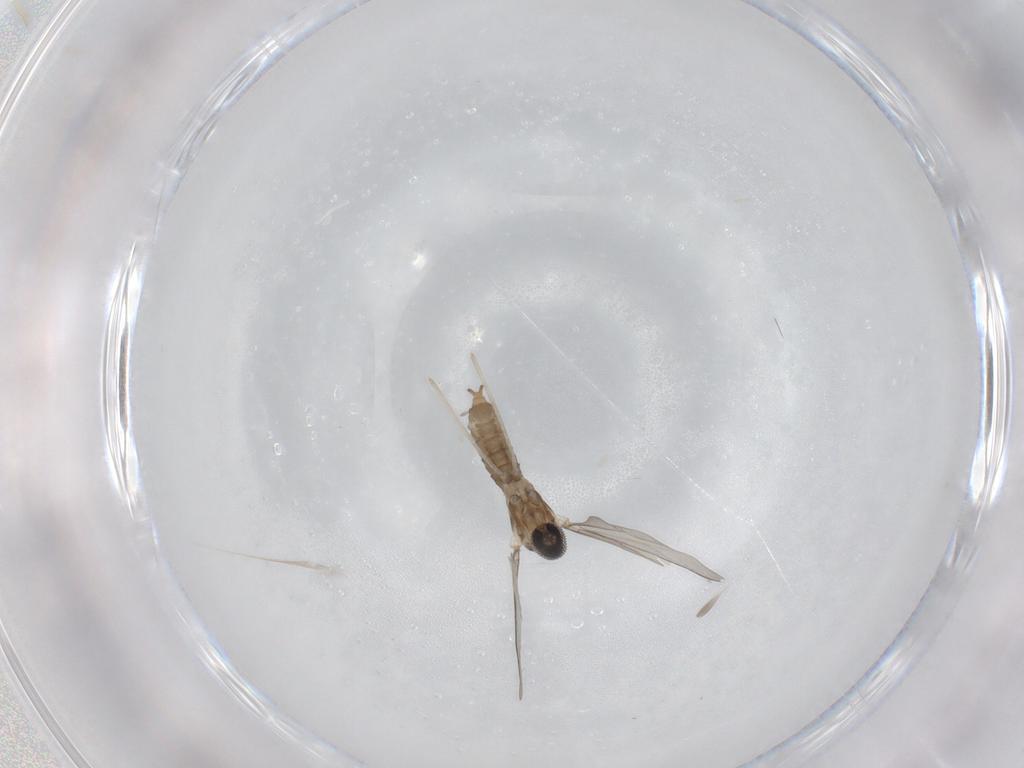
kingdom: Animalia
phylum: Arthropoda
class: Insecta
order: Diptera
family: Cecidomyiidae
